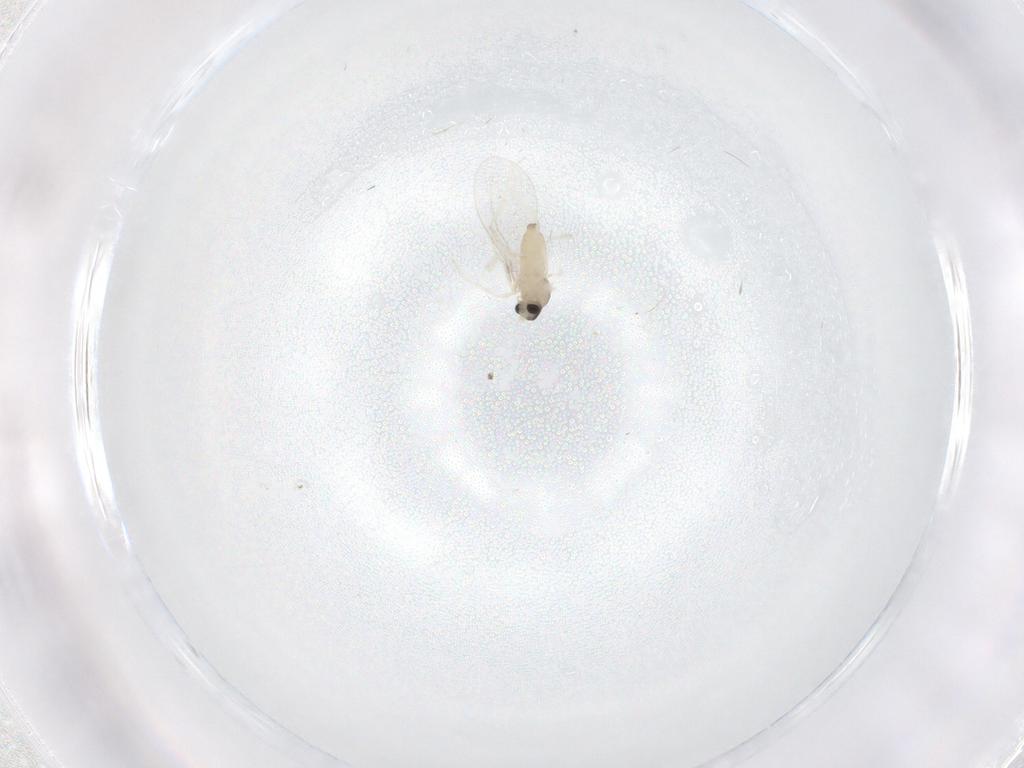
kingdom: Animalia
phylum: Arthropoda
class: Insecta
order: Diptera
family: Cecidomyiidae
